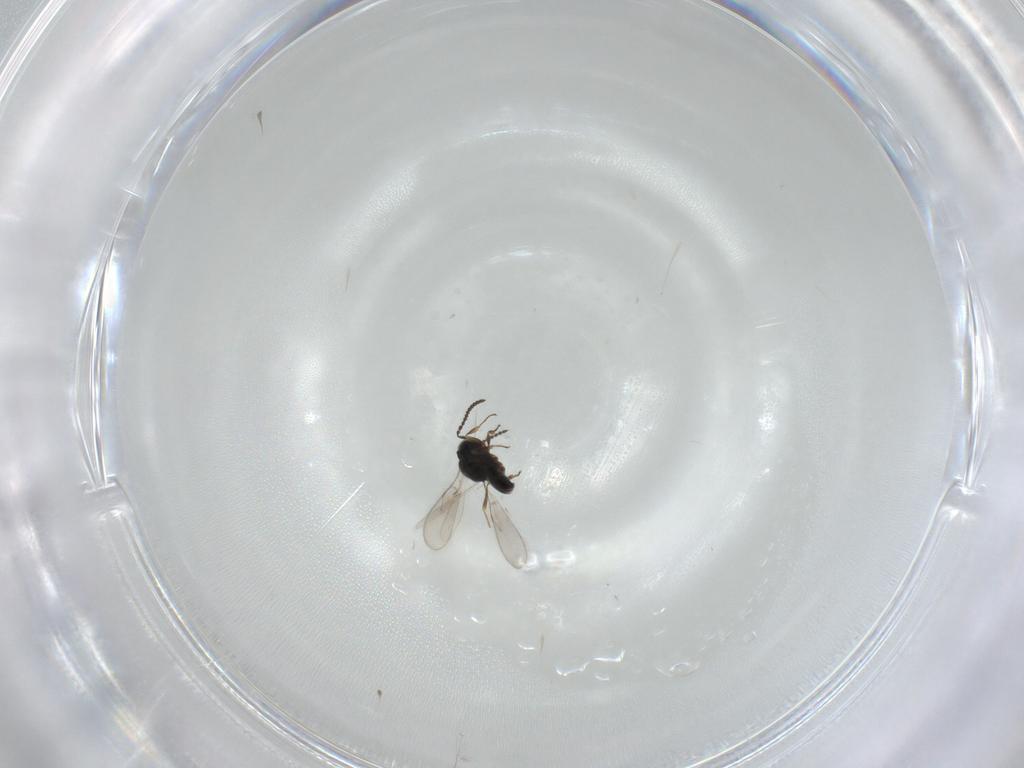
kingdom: Animalia
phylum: Arthropoda
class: Insecta
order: Hymenoptera
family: Scelionidae
